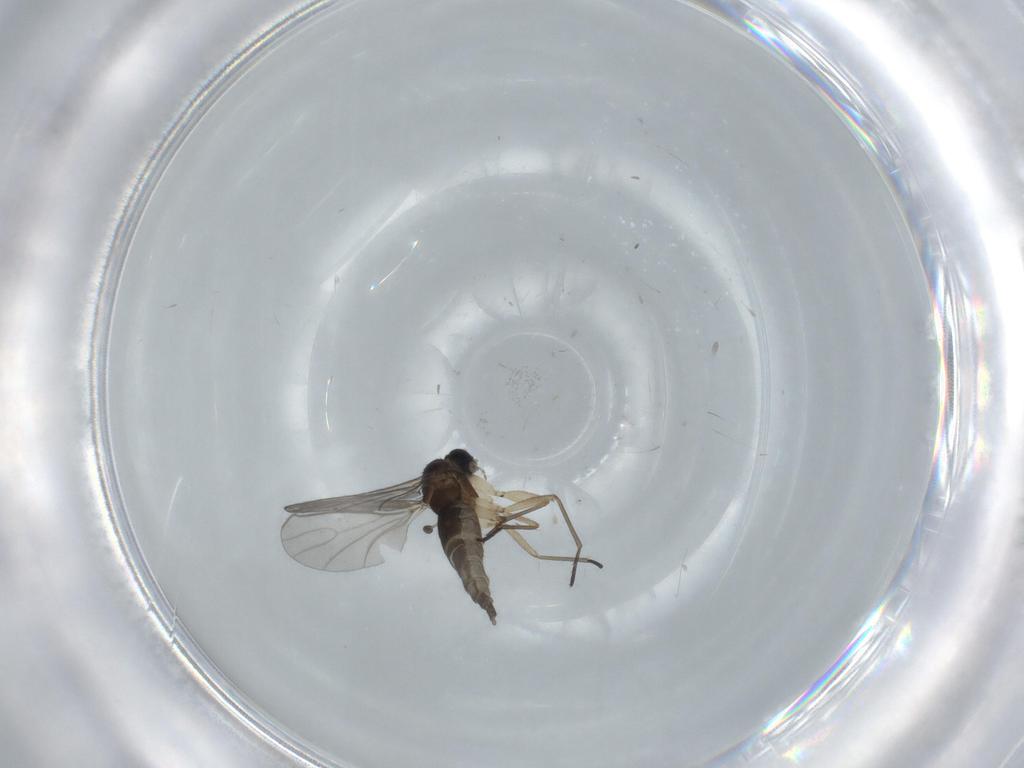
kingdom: Animalia
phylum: Arthropoda
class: Insecta
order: Diptera
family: Sciaridae
